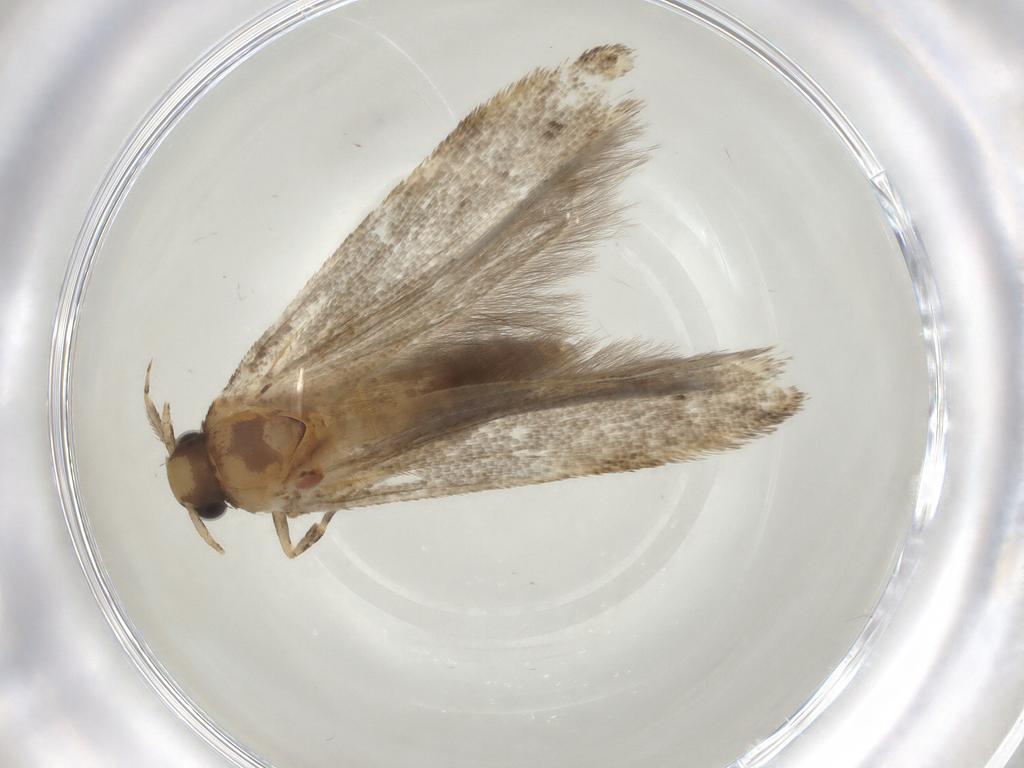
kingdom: Animalia
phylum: Arthropoda
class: Insecta
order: Lepidoptera
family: Gelechiidae
